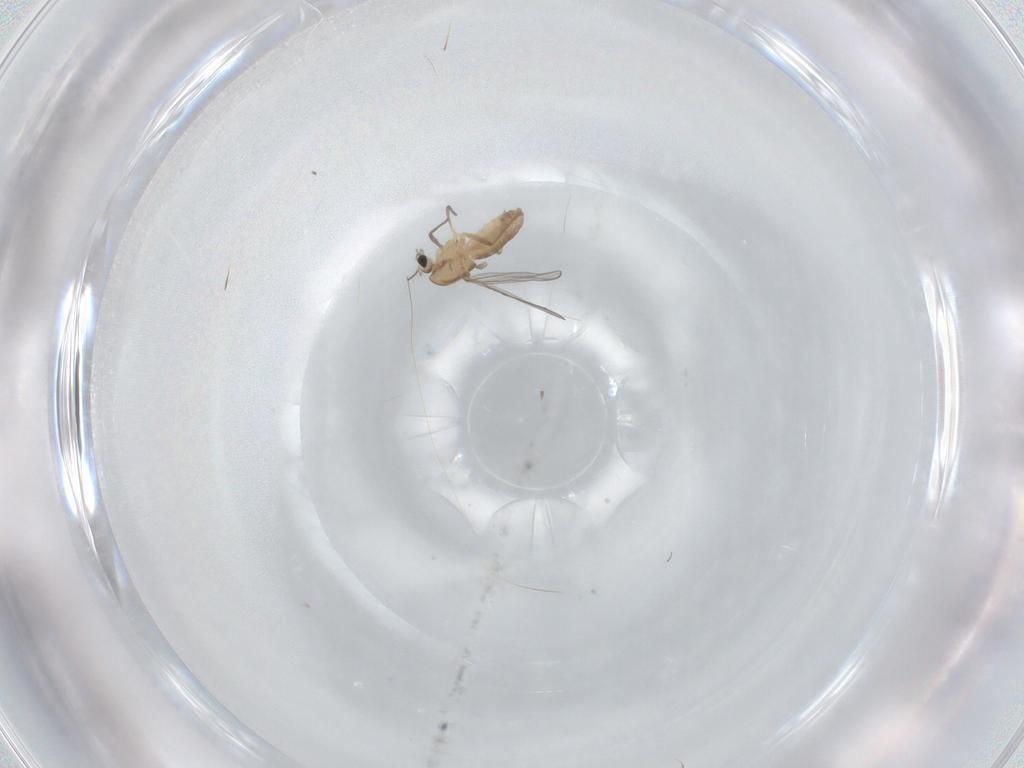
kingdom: Animalia
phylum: Arthropoda
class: Insecta
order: Diptera
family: Chironomidae
